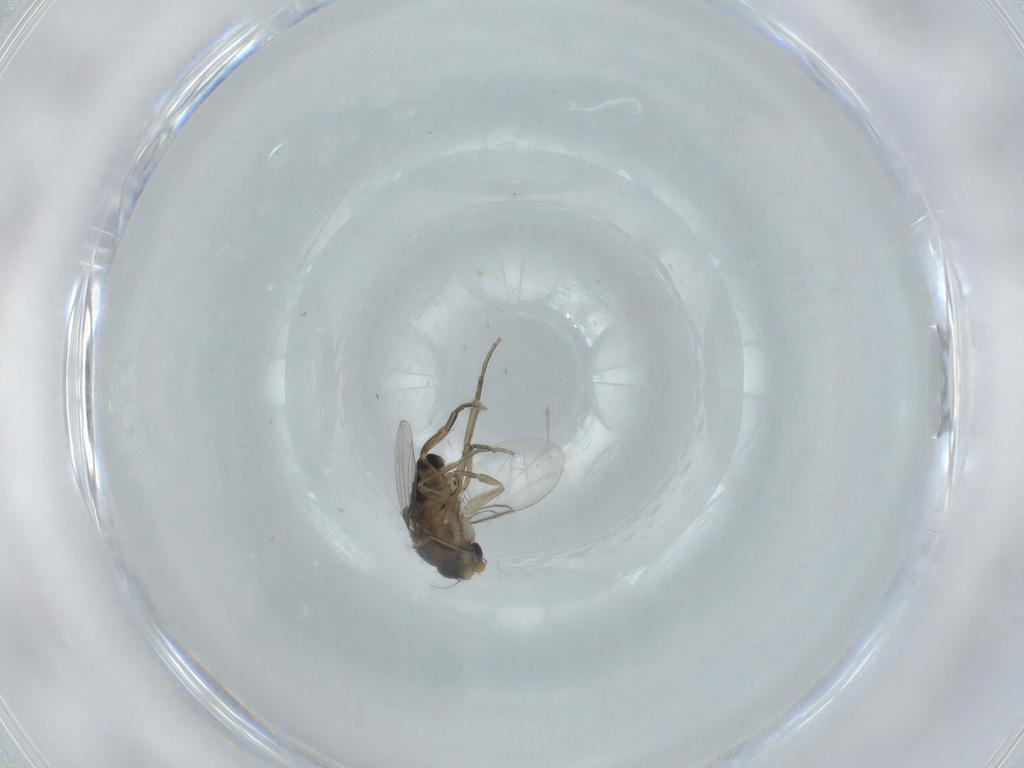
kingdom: Animalia
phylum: Arthropoda
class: Insecta
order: Diptera
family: Phoridae
